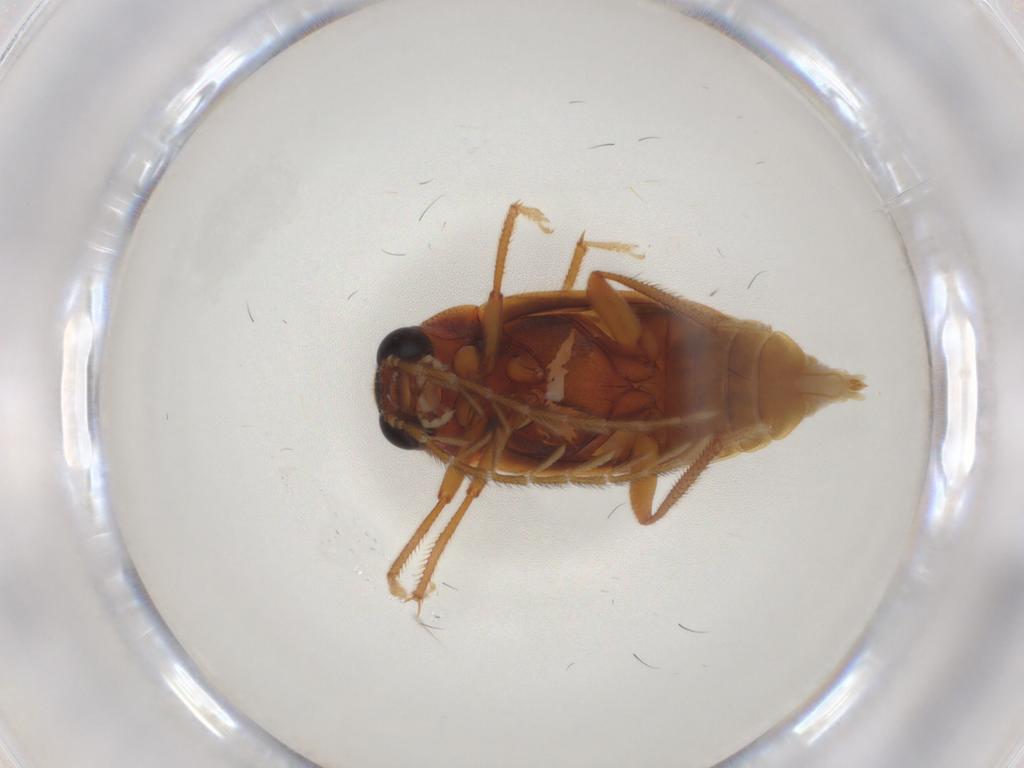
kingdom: Animalia
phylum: Arthropoda
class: Insecta
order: Coleoptera
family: Ptilodactylidae
